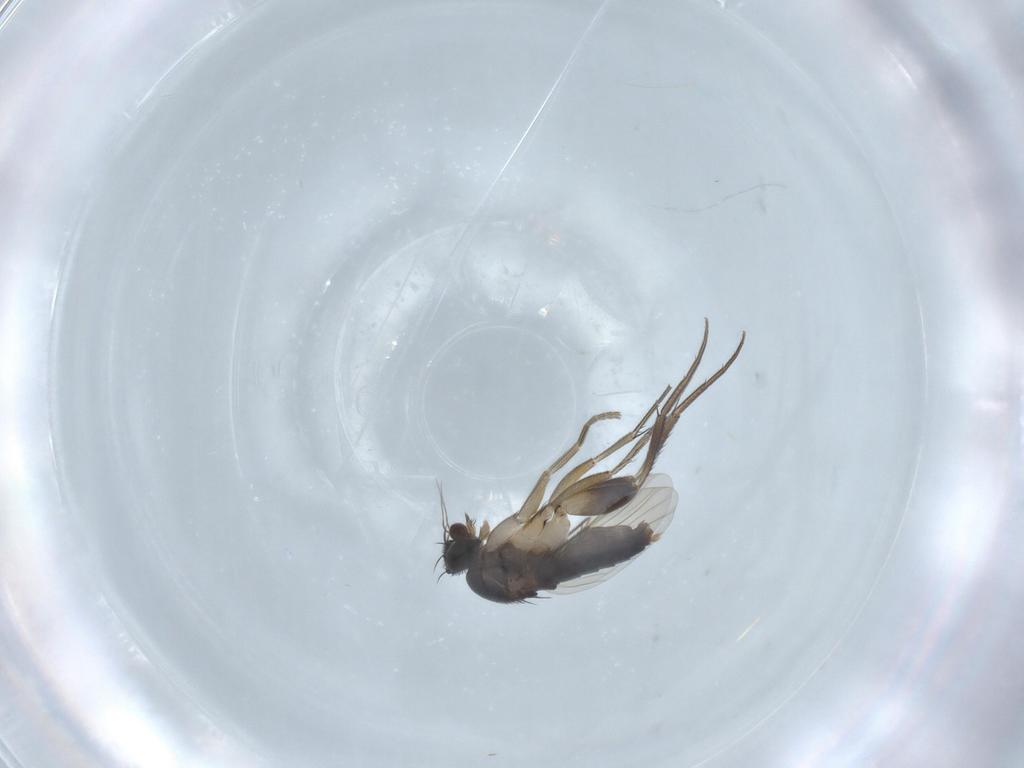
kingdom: Animalia
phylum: Arthropoda
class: Insecta
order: Diptera
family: Phoridae
